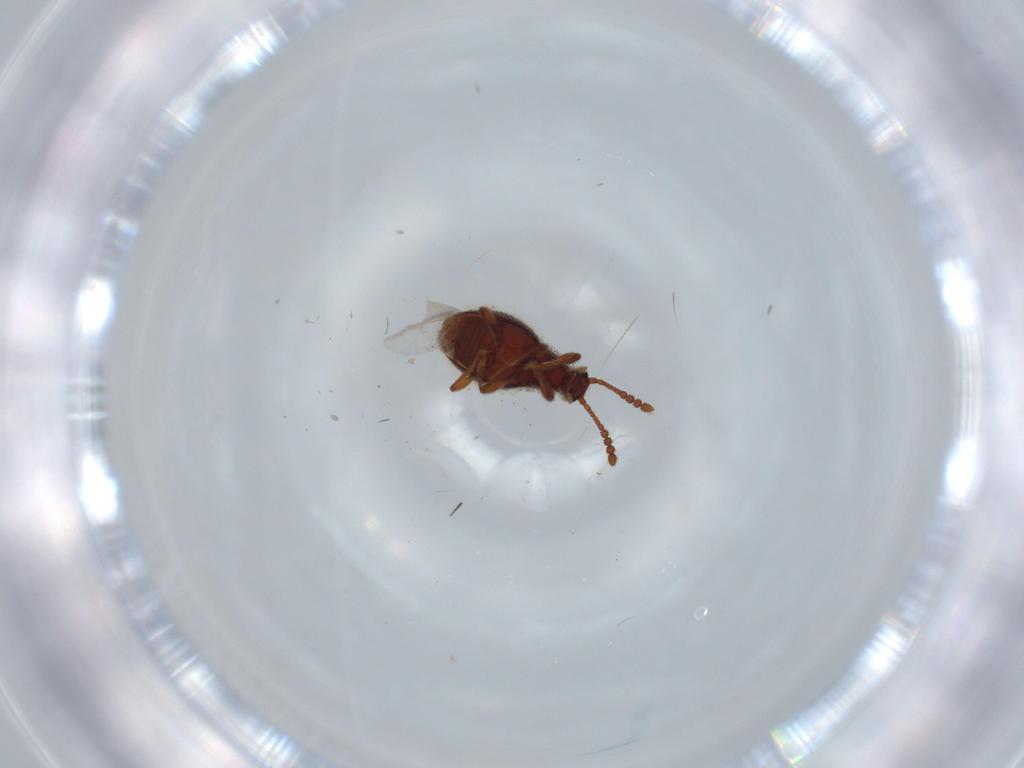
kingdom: Animalia
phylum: Arthropoda
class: Insecta
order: Coleoptera
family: Staphylinidae
